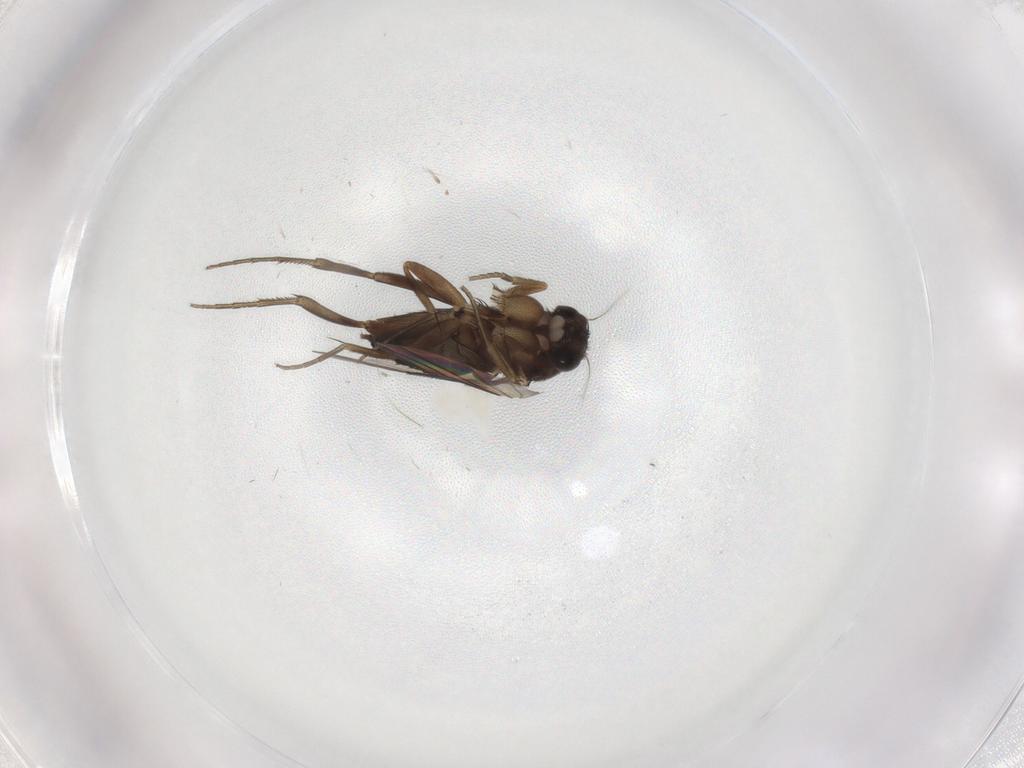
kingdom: Animalia
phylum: Arthropoda
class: Insecta
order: Diptera
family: Phoridae
